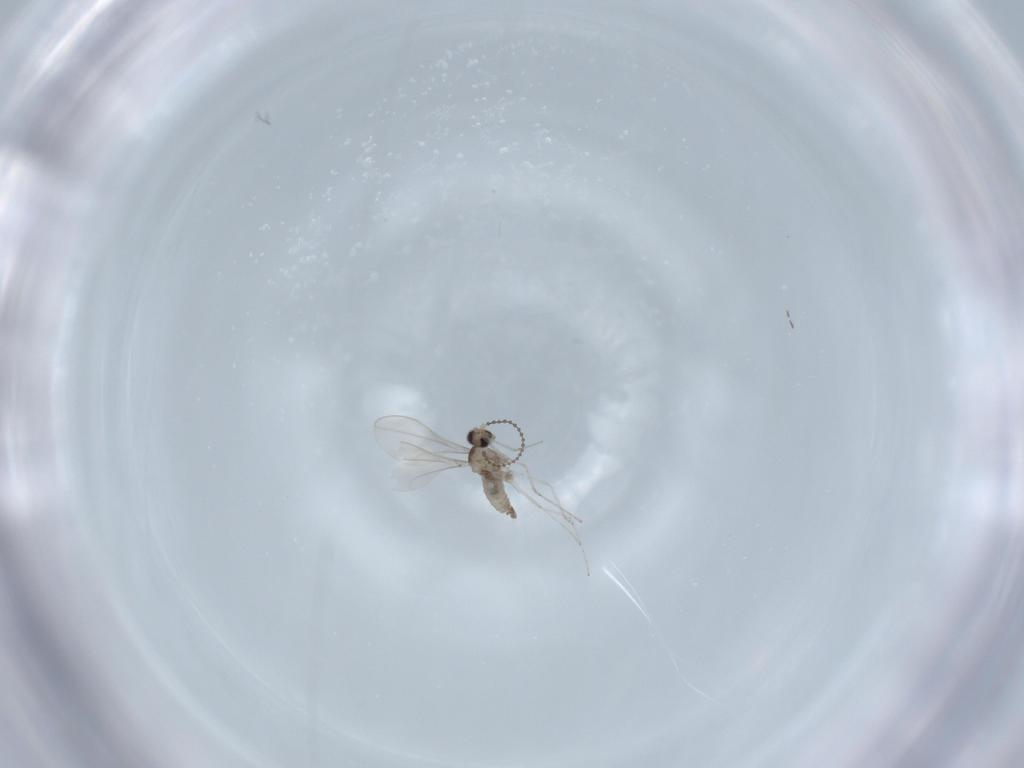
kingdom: Animalia
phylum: Arthropoda
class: Insecta
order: Diptera
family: Cecidomyiidae
